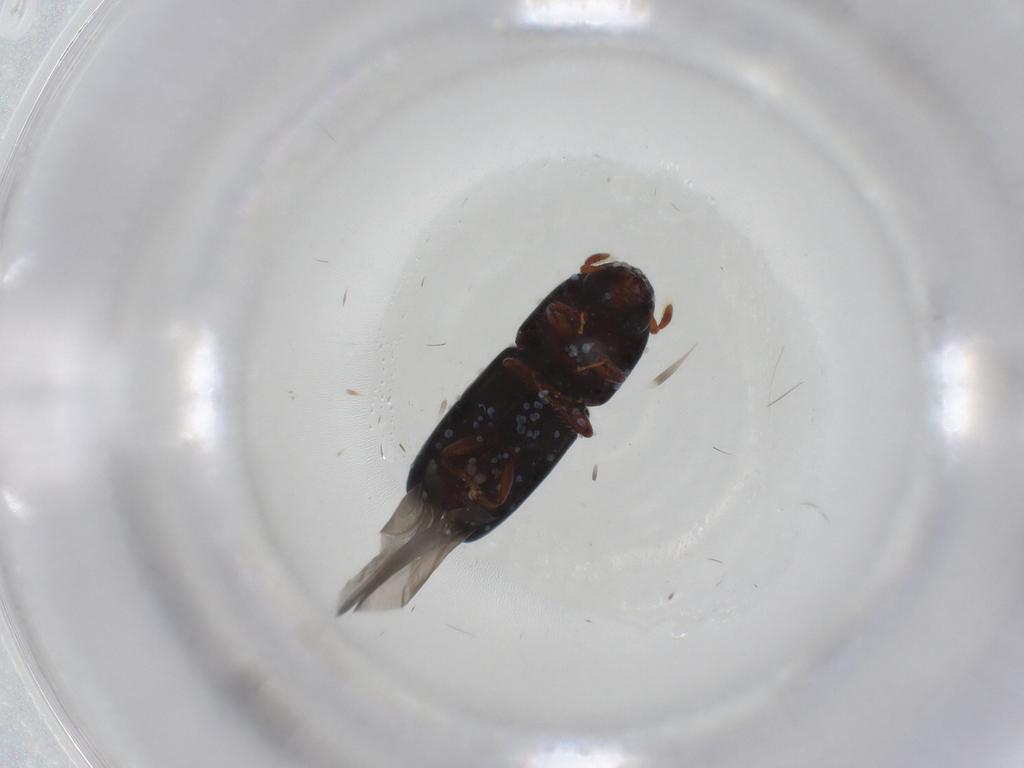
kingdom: Animalia
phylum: Arthropoda
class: Insecta
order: Coleoptera
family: Curculionidae
